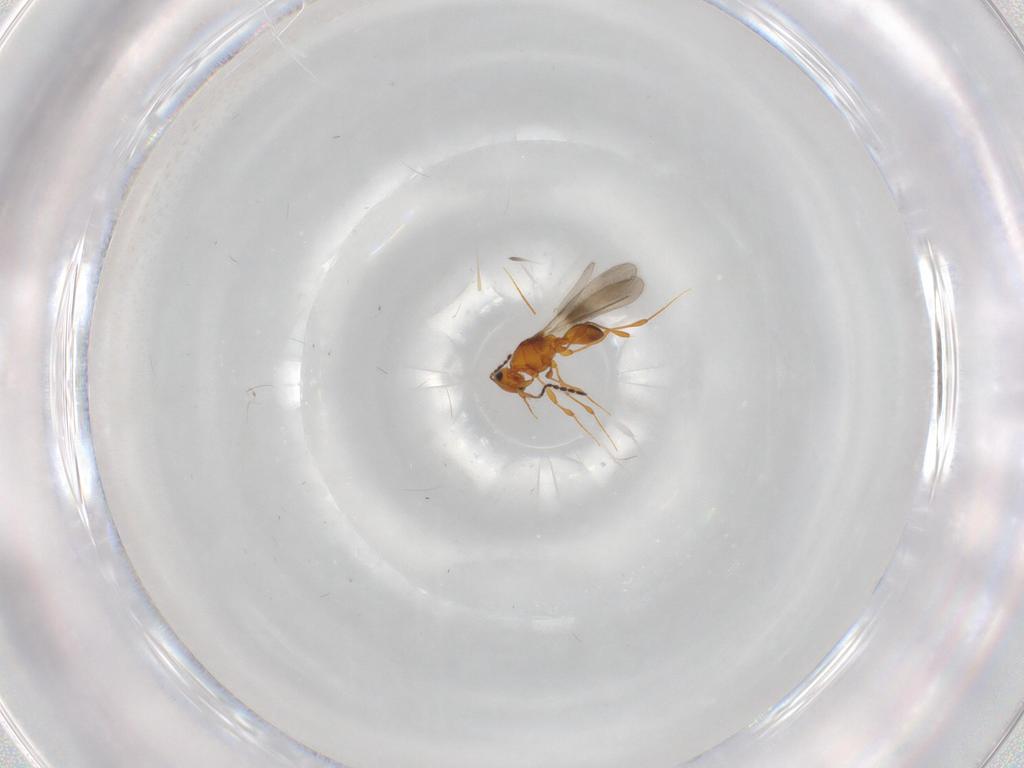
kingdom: Animalia
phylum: Arthropoda
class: Insecta
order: Hymenoptera
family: Platygastridae
